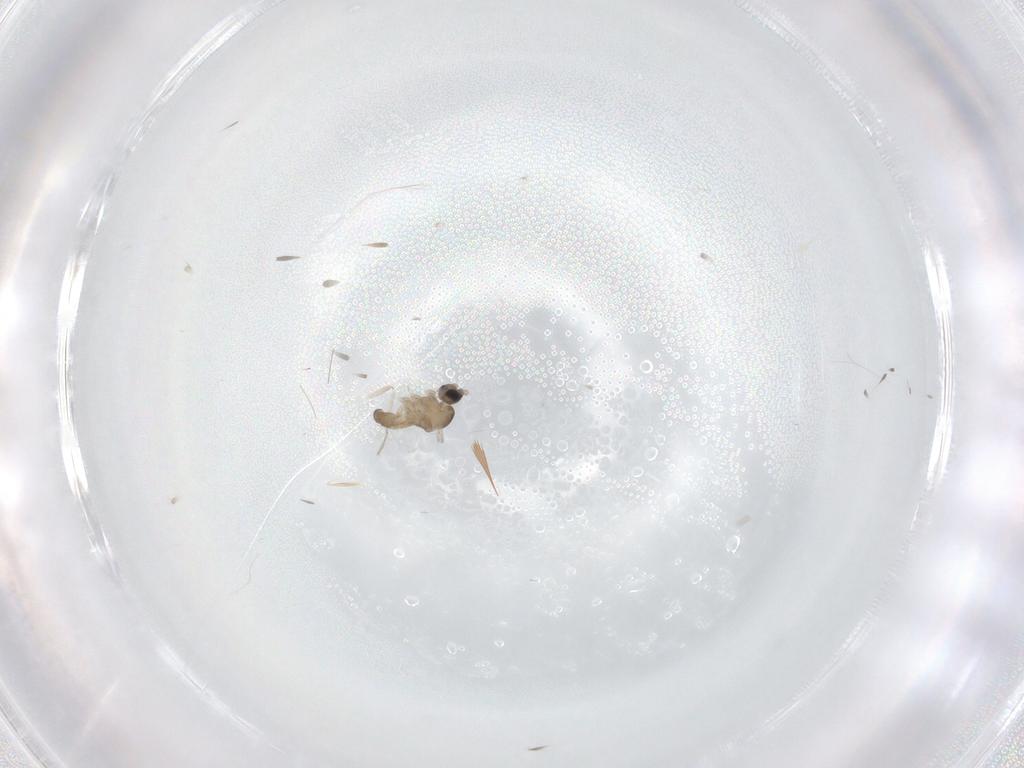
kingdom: Animalia
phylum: Arthropoda
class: Insecta
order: Diptera
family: Cecidomyiidae
